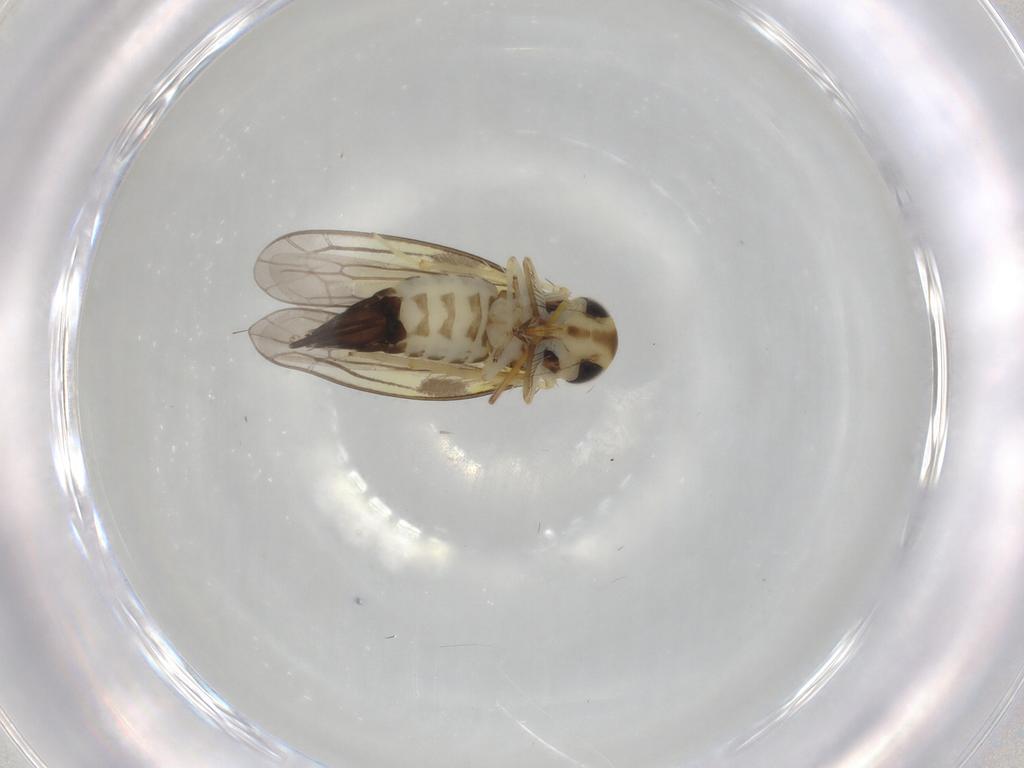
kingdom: Animalia
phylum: Arthropoda
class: Insecta
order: Hemiptera
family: Cicadellidae
